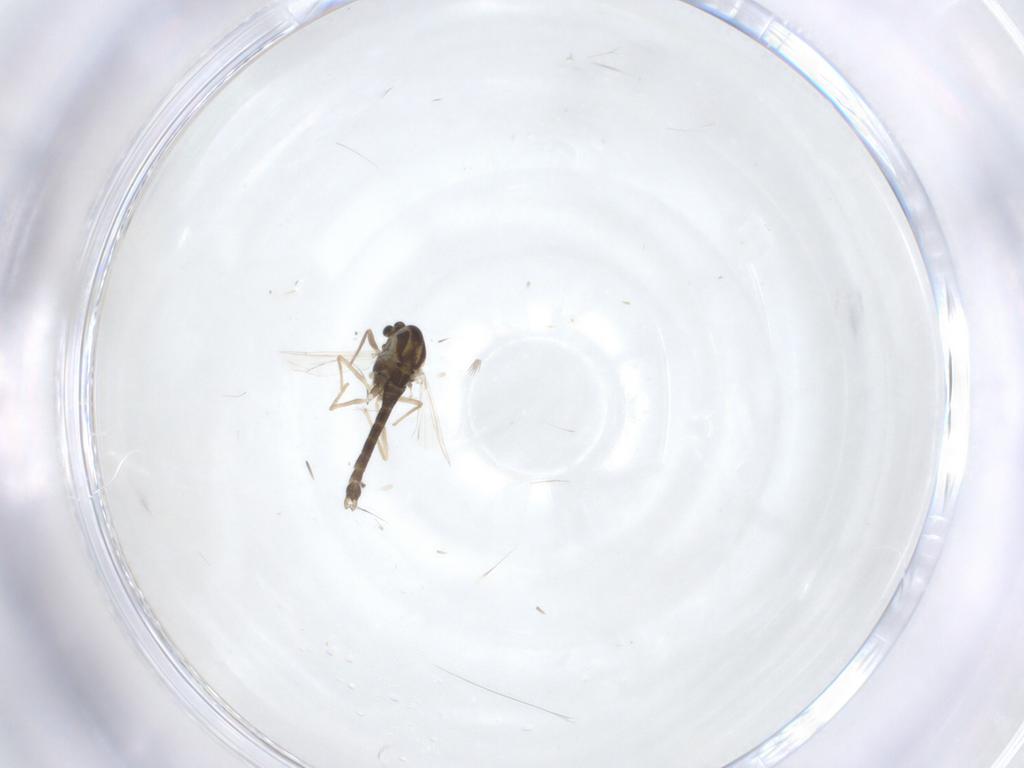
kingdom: Animalia
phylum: Arthropoda
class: Insecta
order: Diptera
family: Chironomidae
